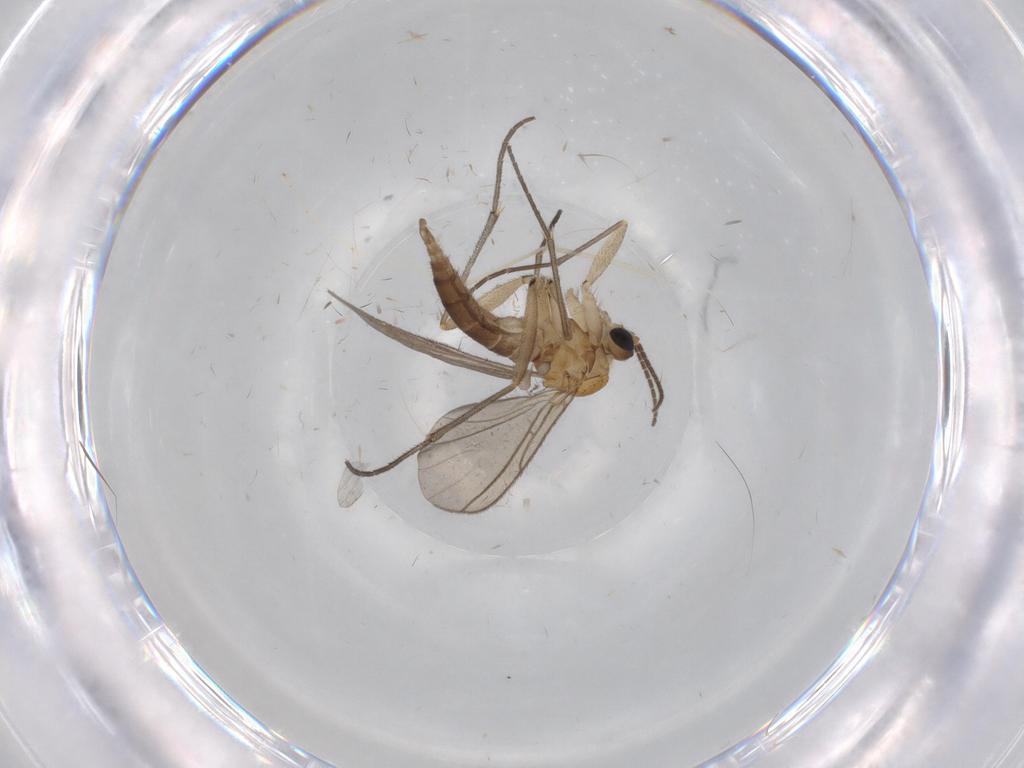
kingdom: Animalia
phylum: Arthropoda
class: Insecta
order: Diptera
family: Sciaridae
